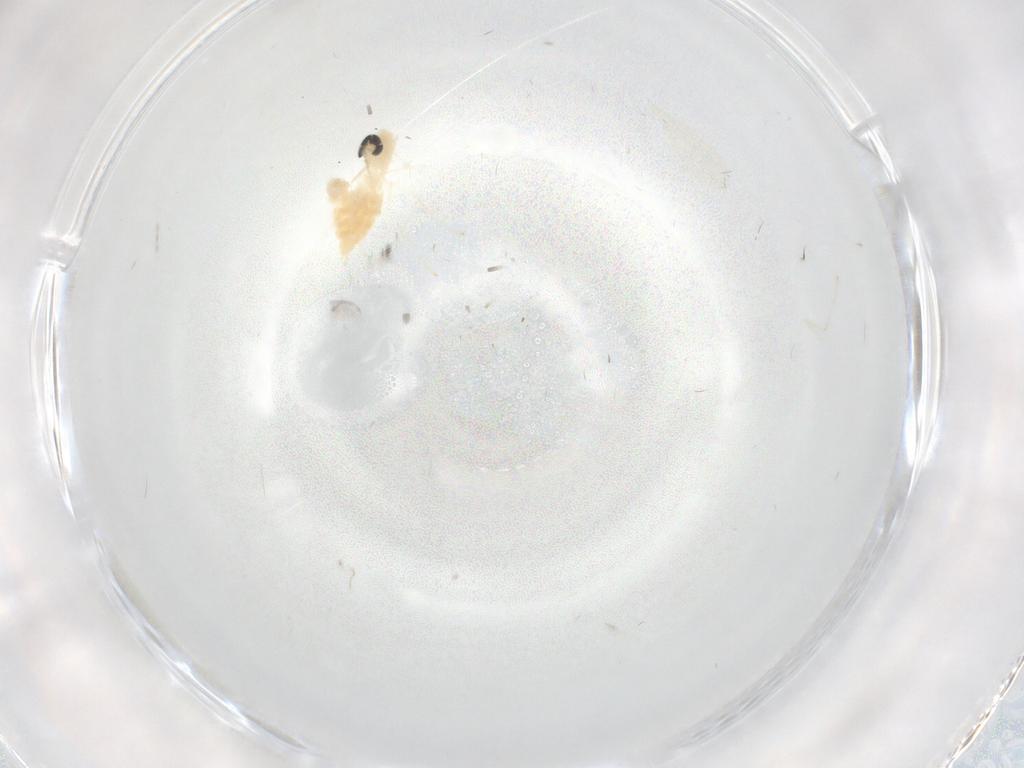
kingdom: Animalia
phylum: Arthropoda
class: Insecta
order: Diptera
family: Cecidomyiidae
